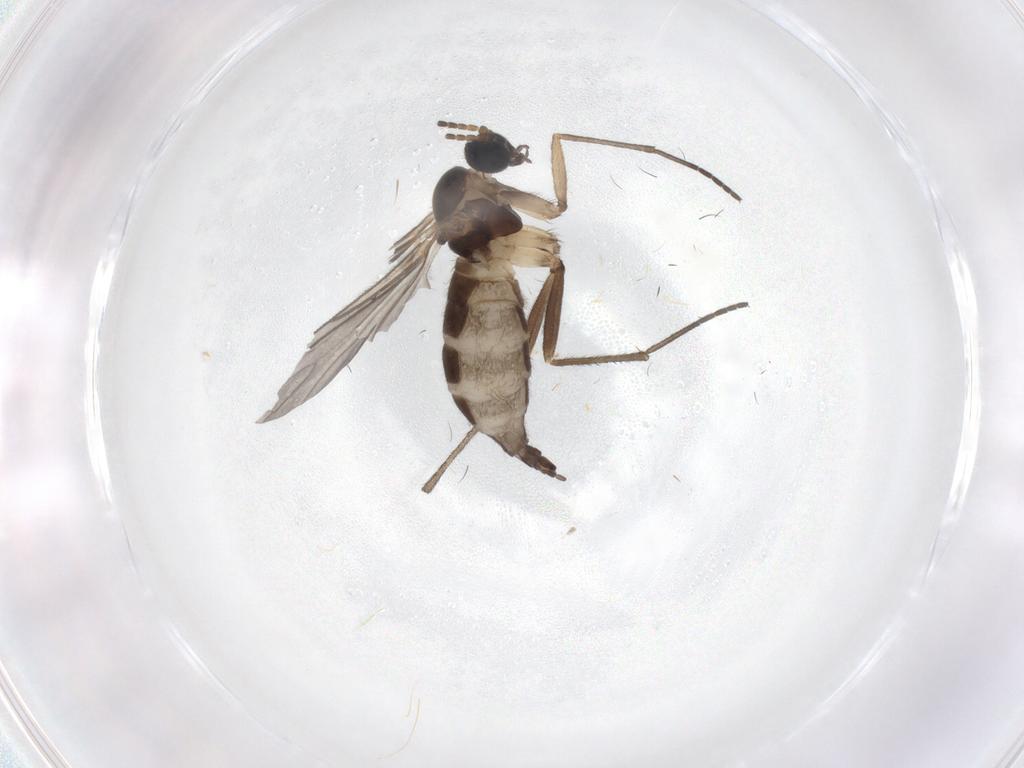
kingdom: Animalia
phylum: Arthropoda
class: Insecta
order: Diptera
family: Sciaridae
